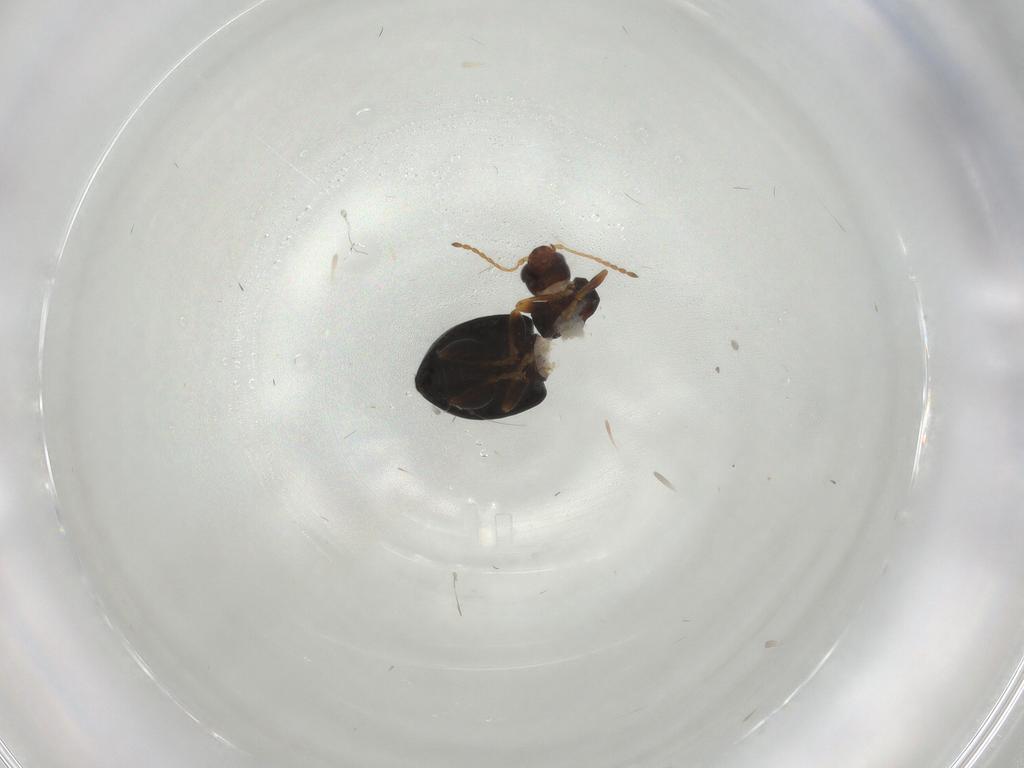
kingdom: Animalia
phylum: Arthropoda
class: Insecta
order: Coleoptera
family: Chrysomelidae
